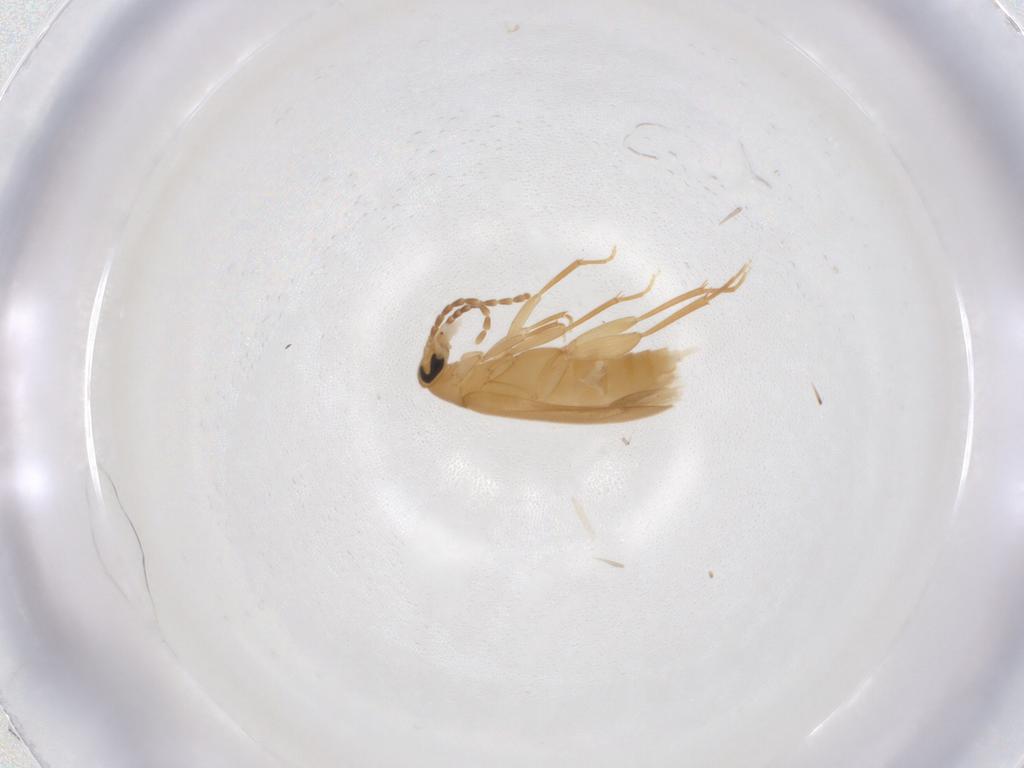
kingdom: Animalia
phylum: Arthropoda
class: Insecta
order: Coleoptera
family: Scraptiidae
